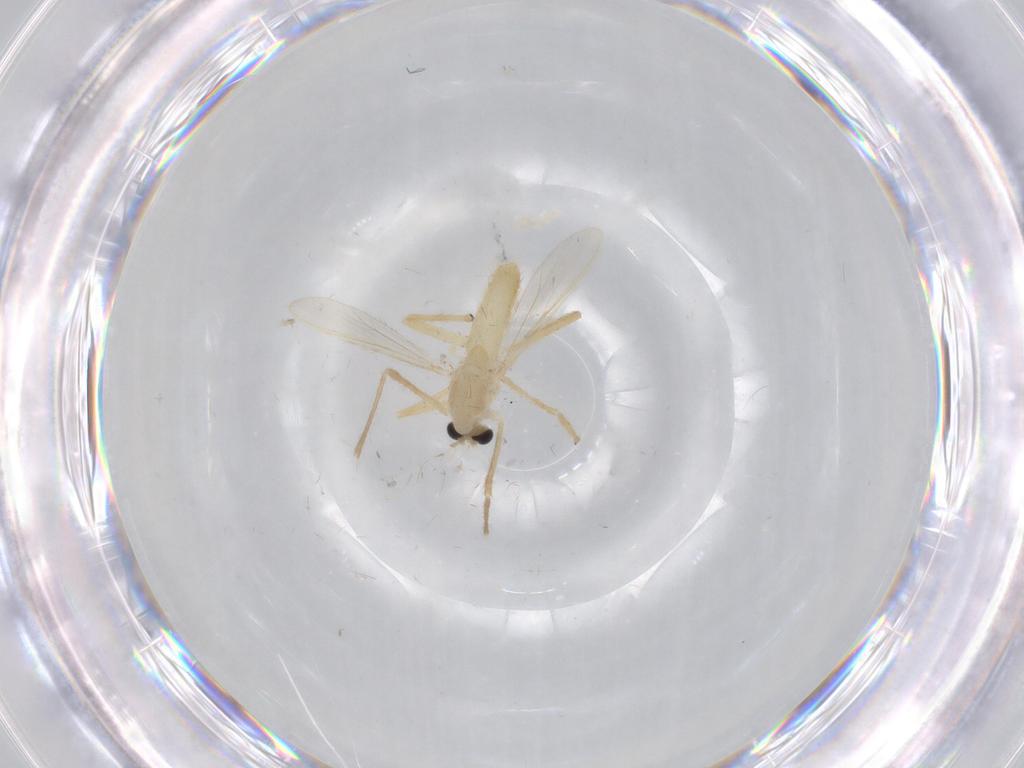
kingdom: Animalia
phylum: Arthropoda
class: Insecta
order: Diptera
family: Chironomidae
